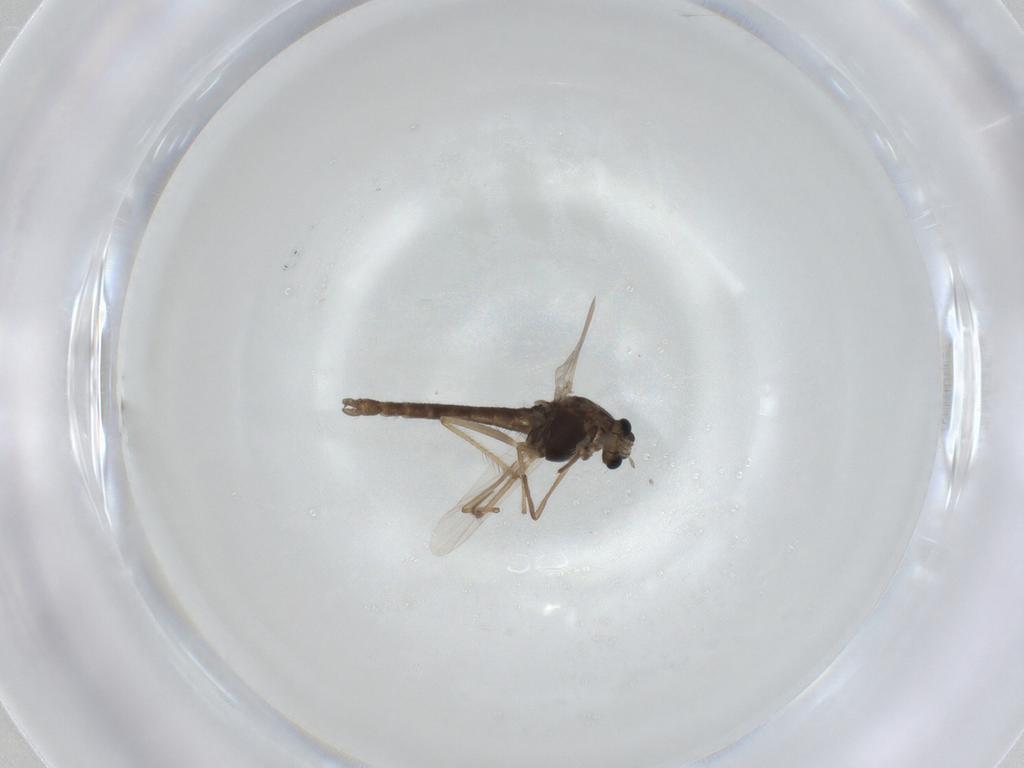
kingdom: Animalia
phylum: Arthropoda
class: Insecta
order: Diptera
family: Chironomidae
